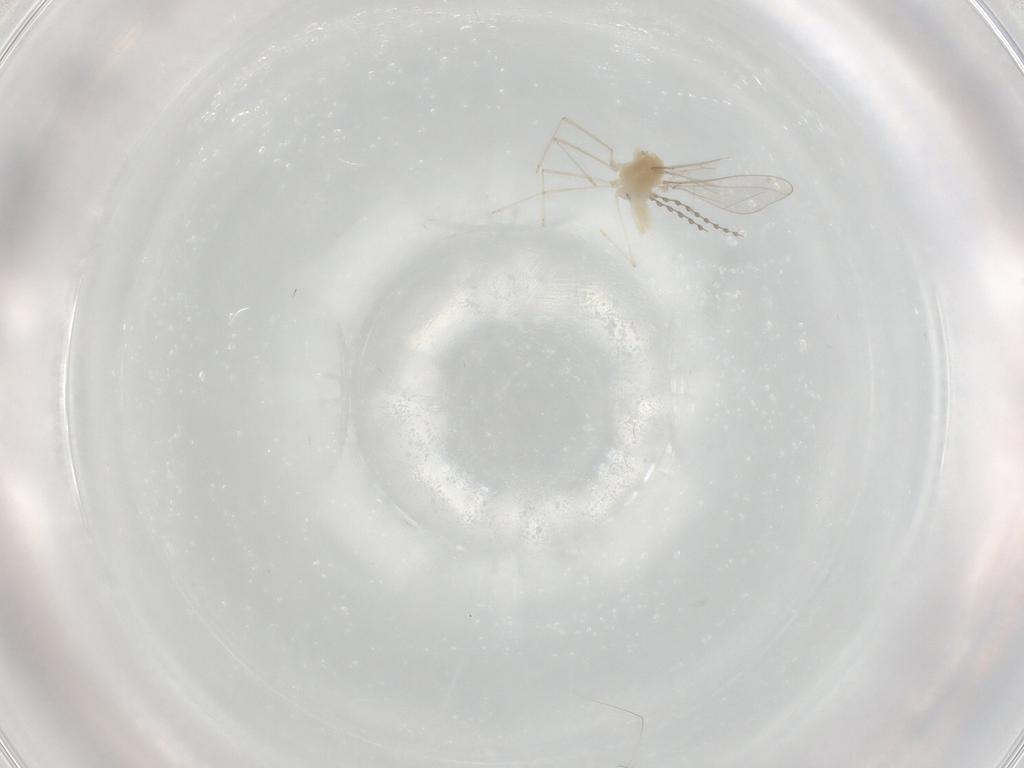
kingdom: Animalia
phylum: Arthropoda
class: Insecta
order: Diptera
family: Cecidomyiidae
